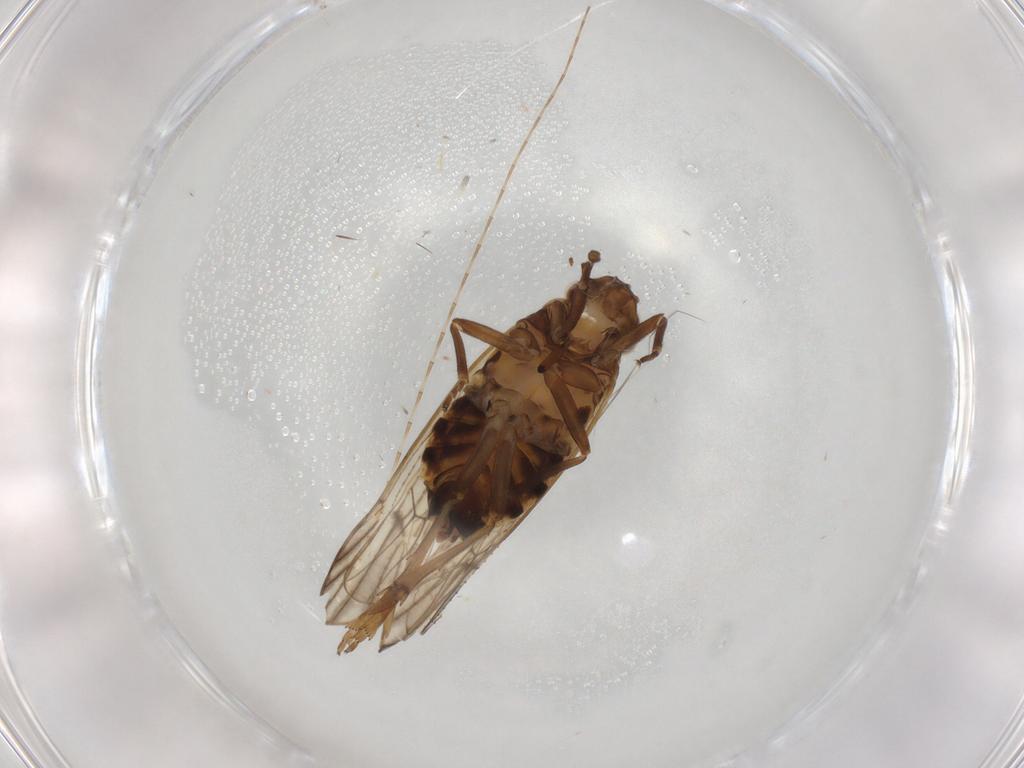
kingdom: Animalia
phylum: Arthropoda
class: Insecta
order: Hemiptera
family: Delphacidae
